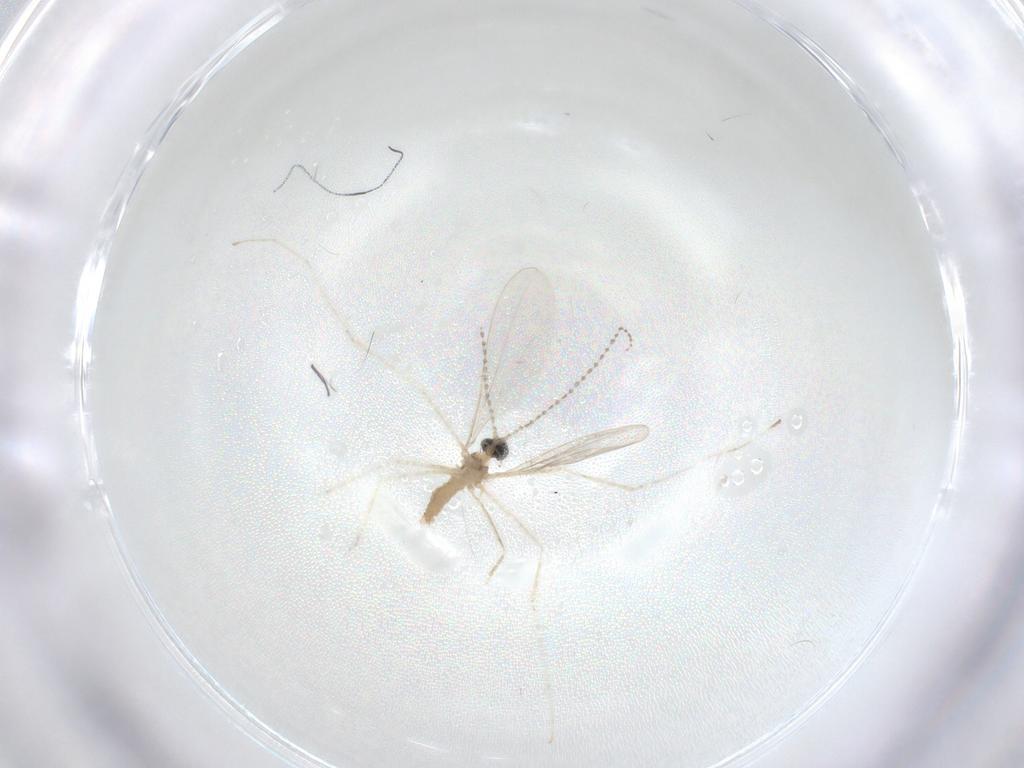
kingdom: Animalia
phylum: Arthropoda
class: Insecta
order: Diptera
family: Cecidomyiidae
